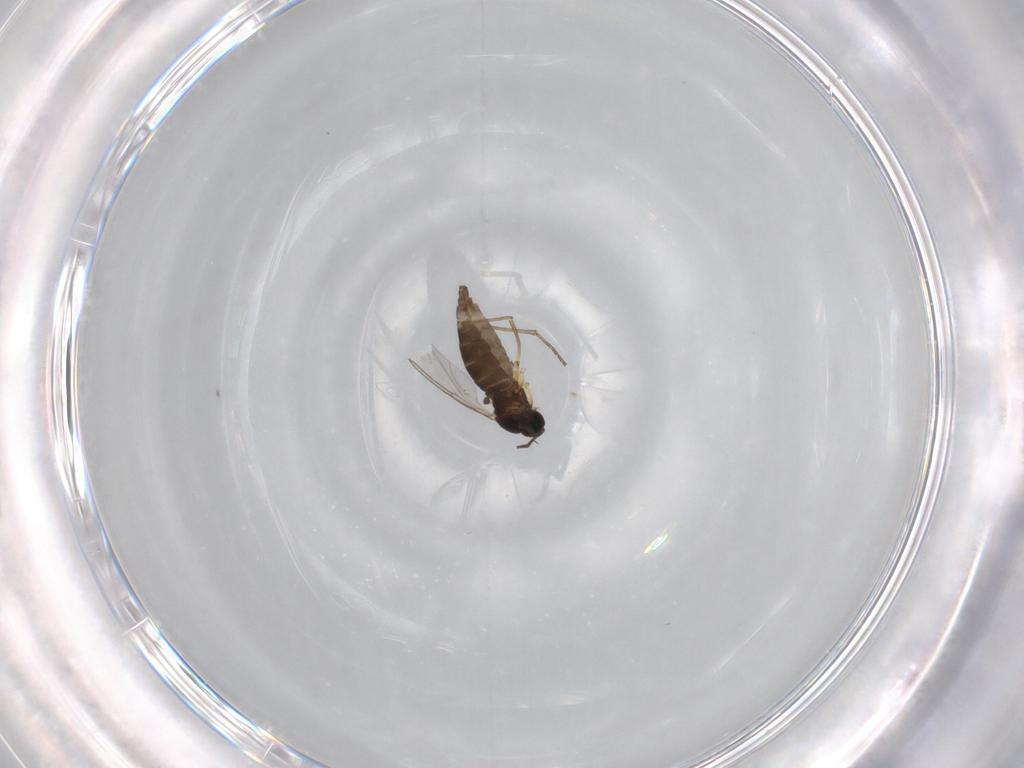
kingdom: Animalia
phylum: Arthropoda
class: Insecta
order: Diptera
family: Sciaridae
